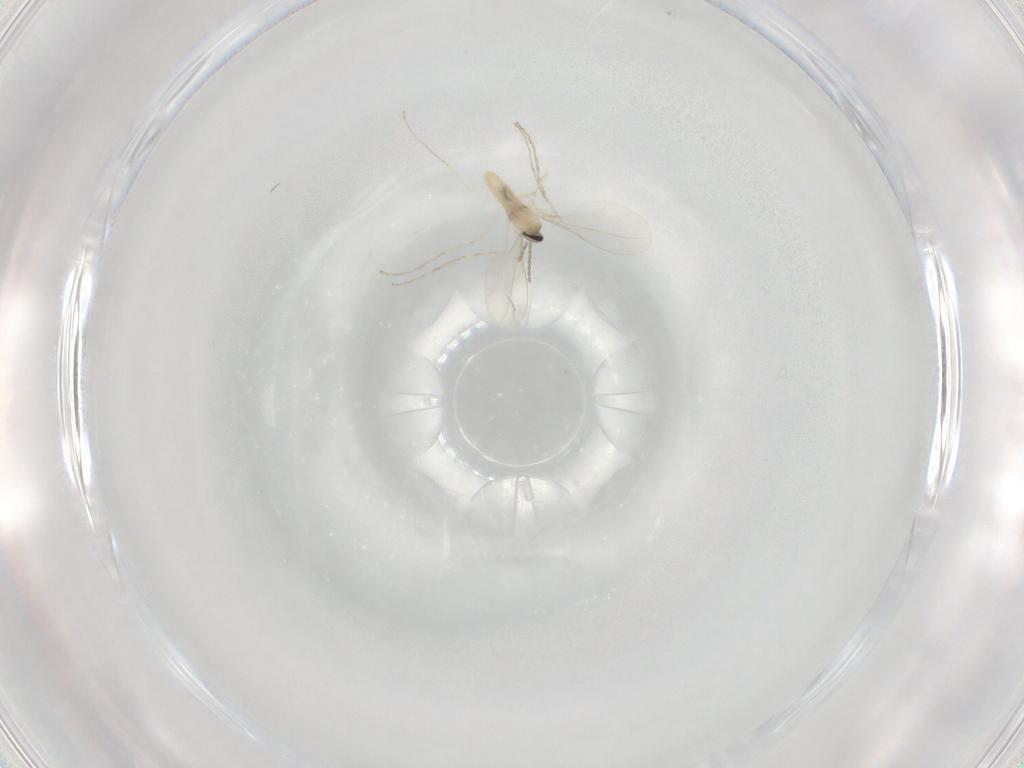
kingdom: Animalia
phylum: Arthropoda
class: Insecta
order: Diptera
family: Cecidomyiidae
